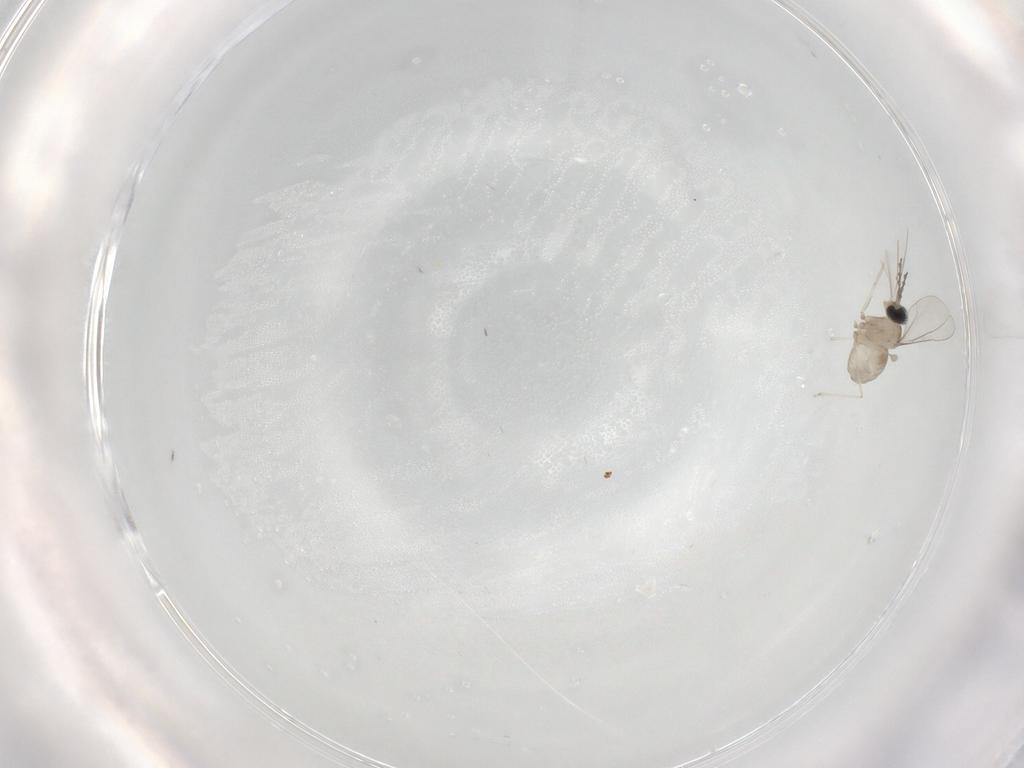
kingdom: Animalia
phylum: Arthropoda
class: Insecta
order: Diptera
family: Cecidomyiidae
